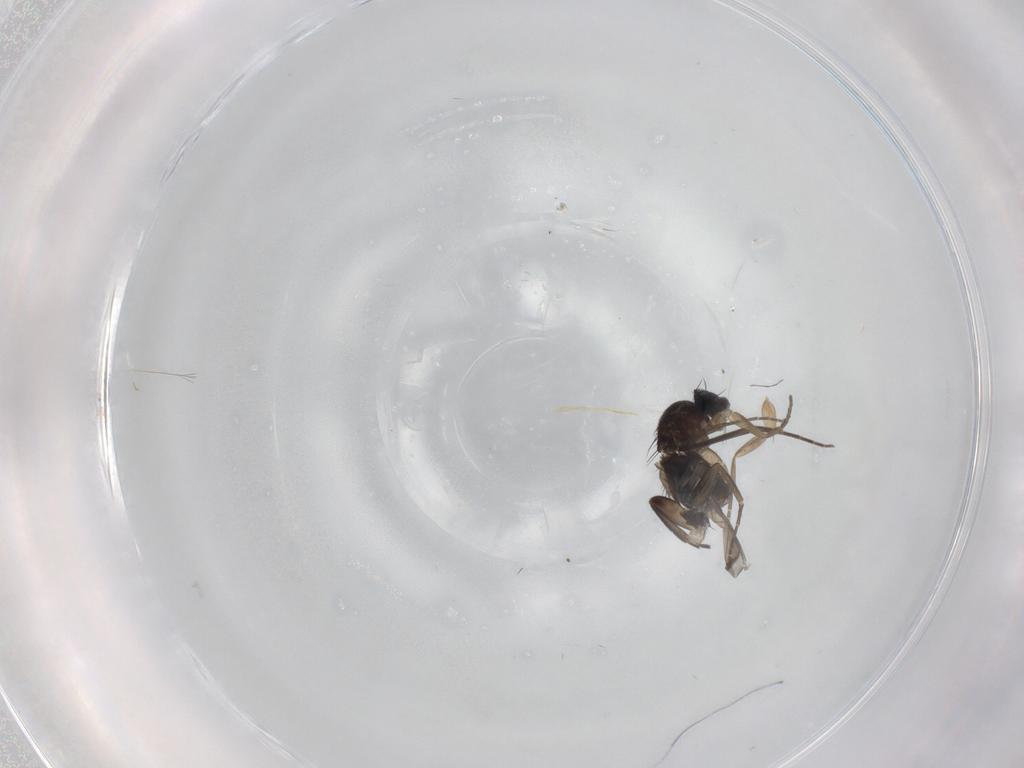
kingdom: Animalia
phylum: Arthropoda
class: Insecta
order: Diptera
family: Phoridae
